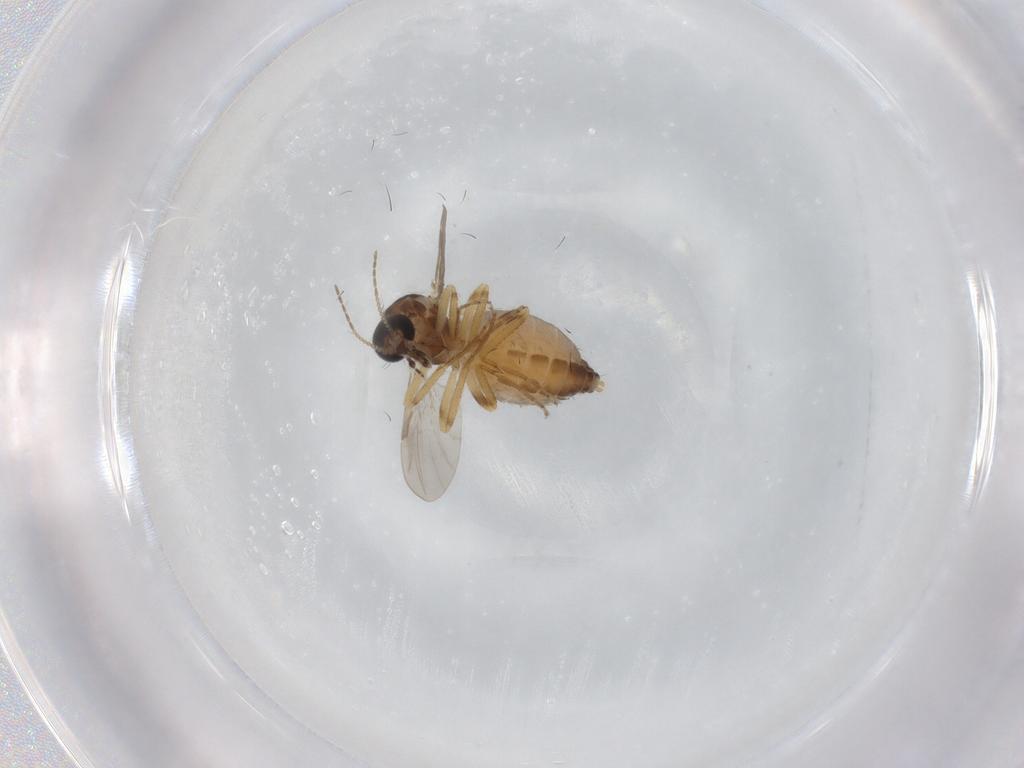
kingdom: Animalia
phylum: Arthropoda
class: Insecta
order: Diptera
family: Ceratopogonidae
